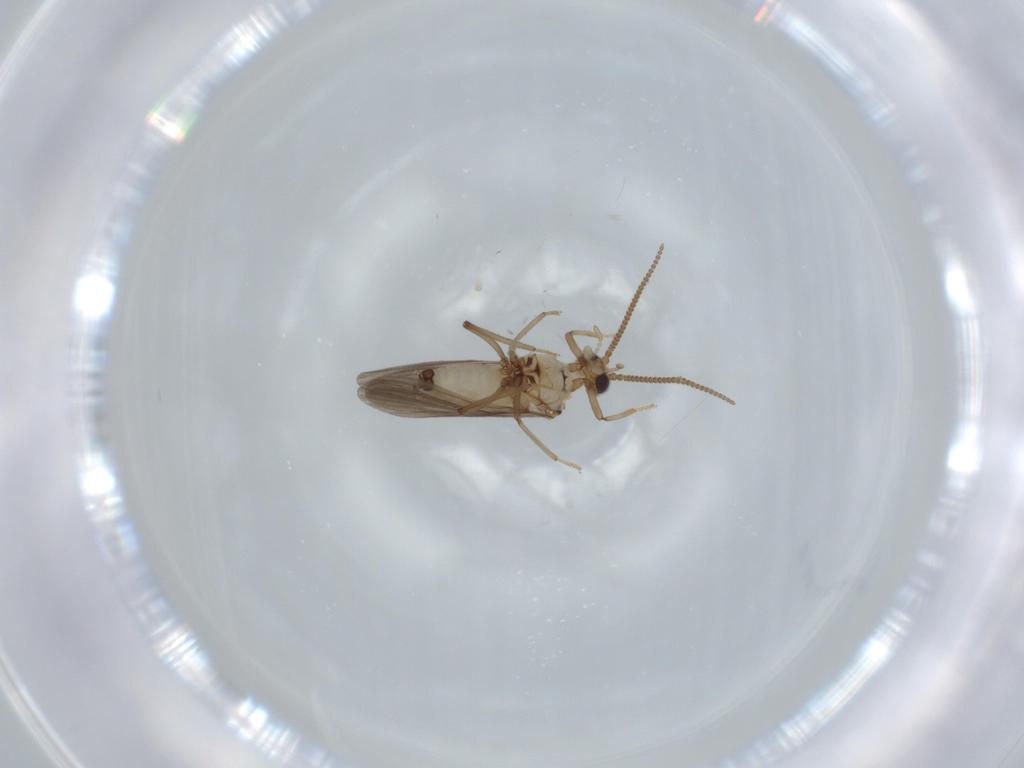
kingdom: Animalia
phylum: Arthropoda
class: Insecta
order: Neuroptera
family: Coniopterygidae
